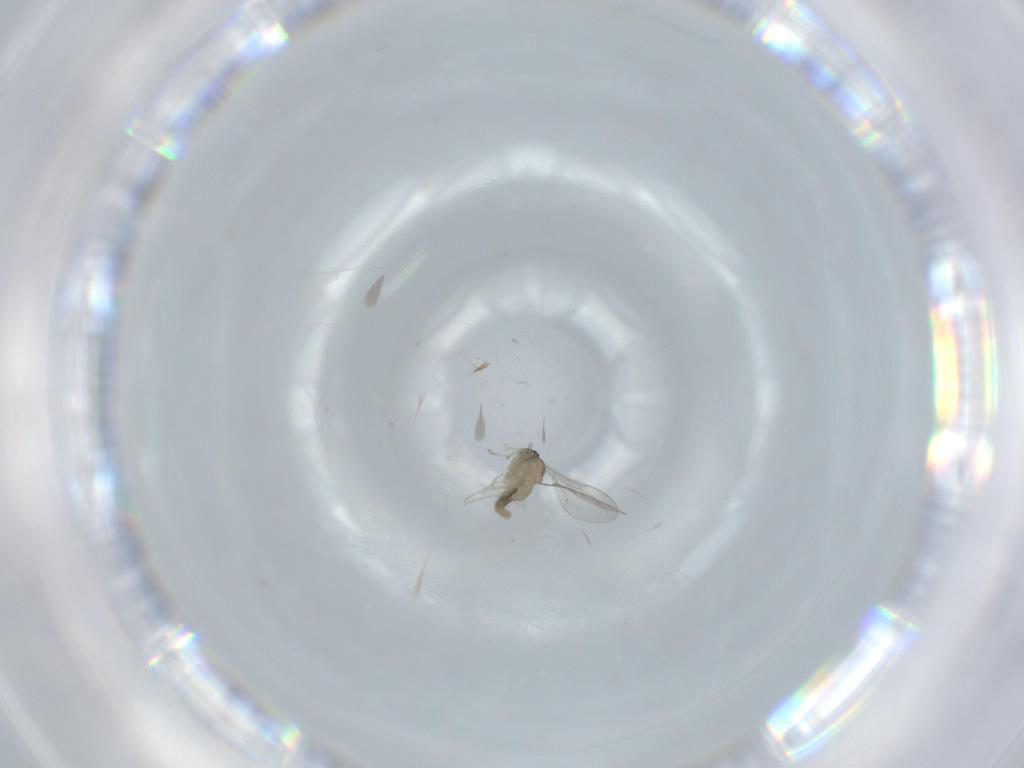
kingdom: Animalia
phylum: Arthropoda
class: Insecta
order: Diptera
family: Cecidomyiidae
